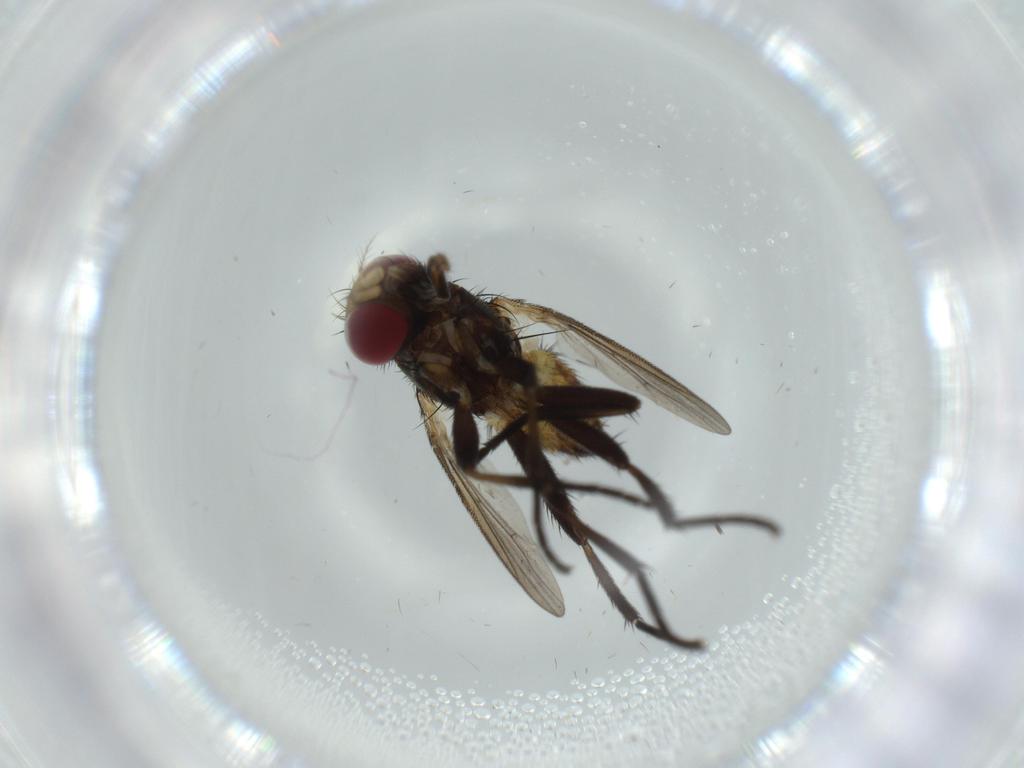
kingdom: Animalia
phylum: Arthropoda
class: Insecta
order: Diptera
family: Anthomyiidae
